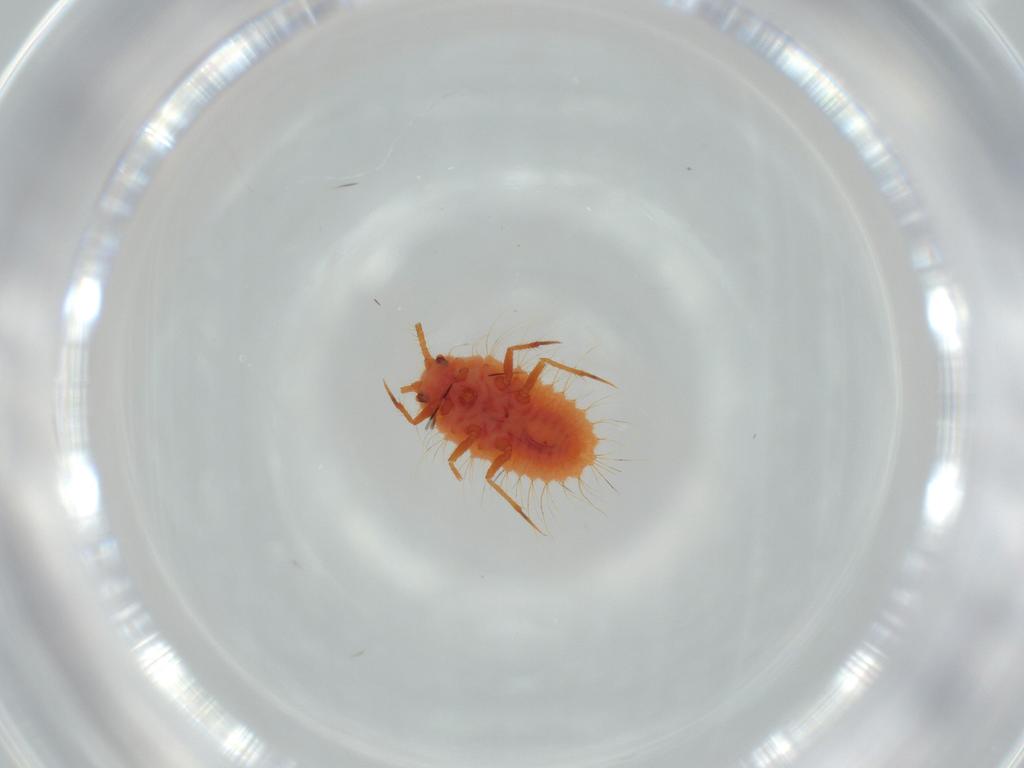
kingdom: Animalia
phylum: Arthropoda
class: Insecta
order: Hemiptera
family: Coccoidea_incertae_sedis
